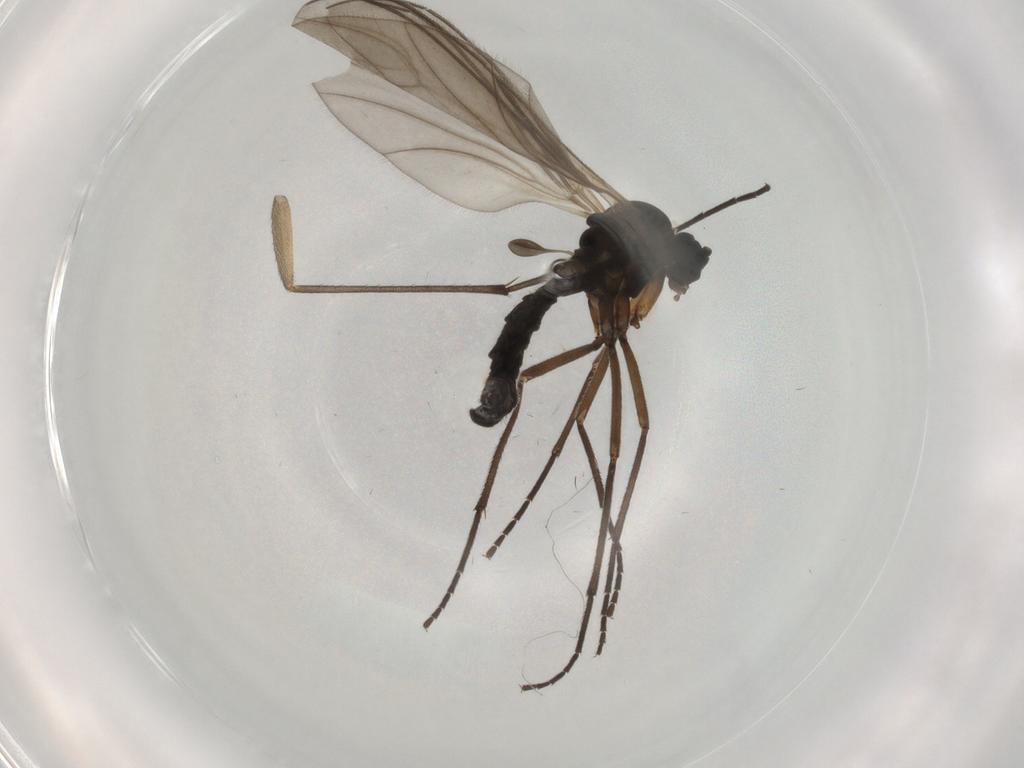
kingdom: Animalia
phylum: Arthropoda
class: Insecta
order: Diptera
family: Sciaridae
